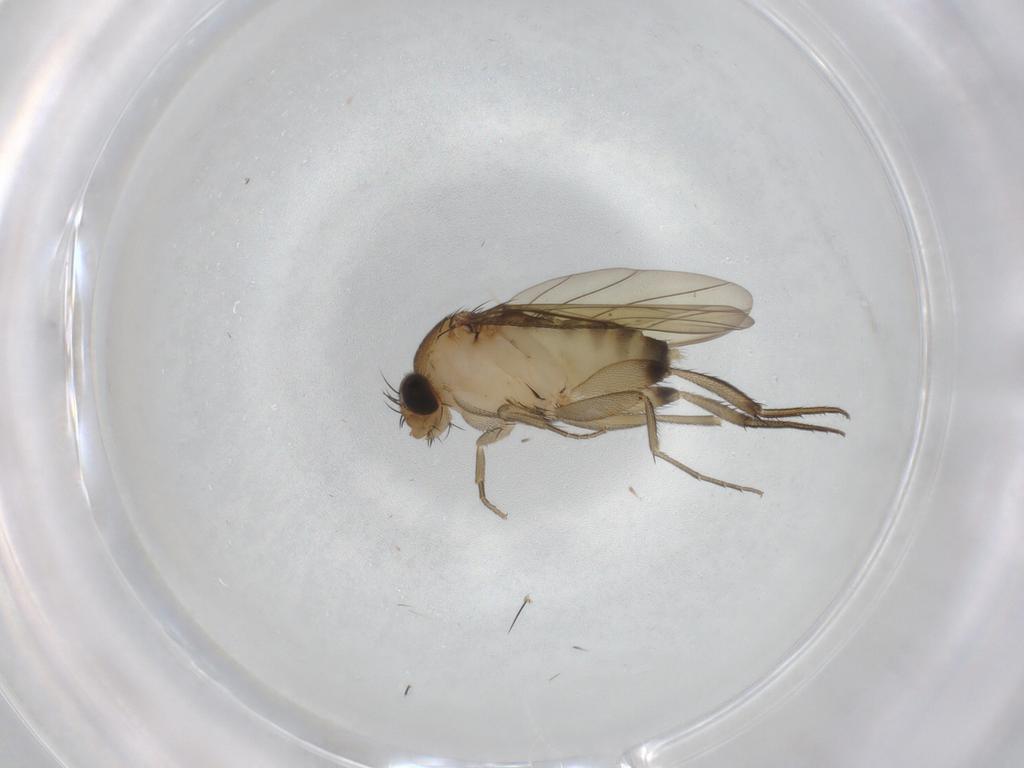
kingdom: Animalia
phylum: Arthropoda
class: Insecta
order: Diptera
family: Phoridae
